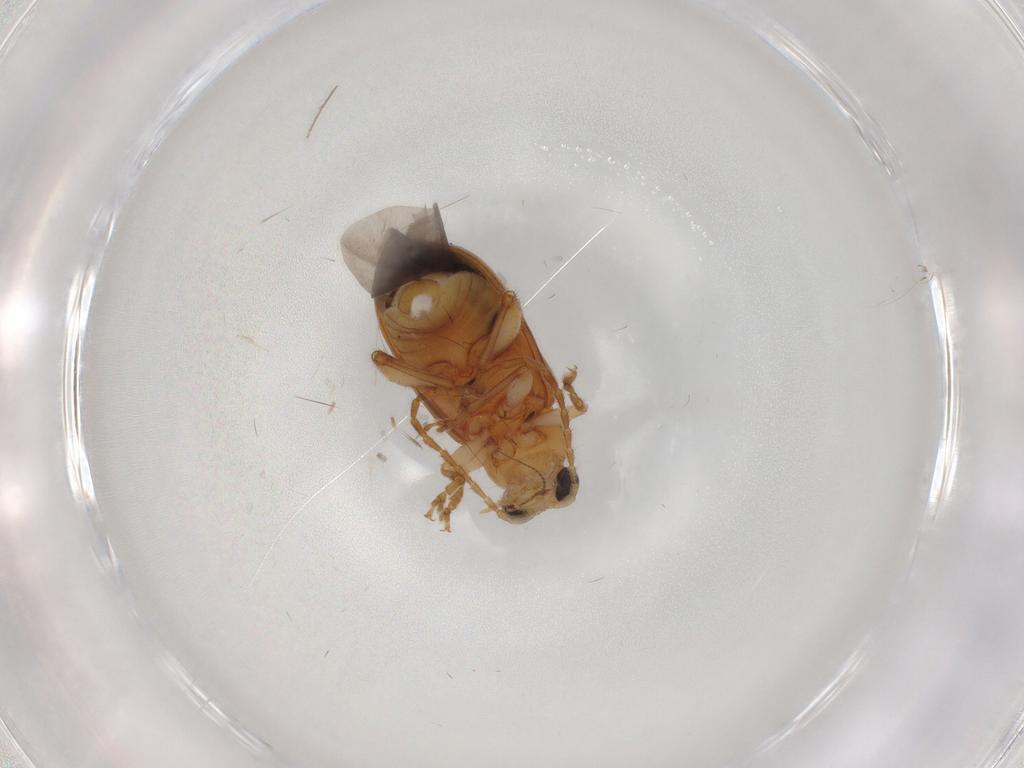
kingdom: Animalia
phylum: Arthropoda
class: Insecta
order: Coleoptera
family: Chrysomelidae
